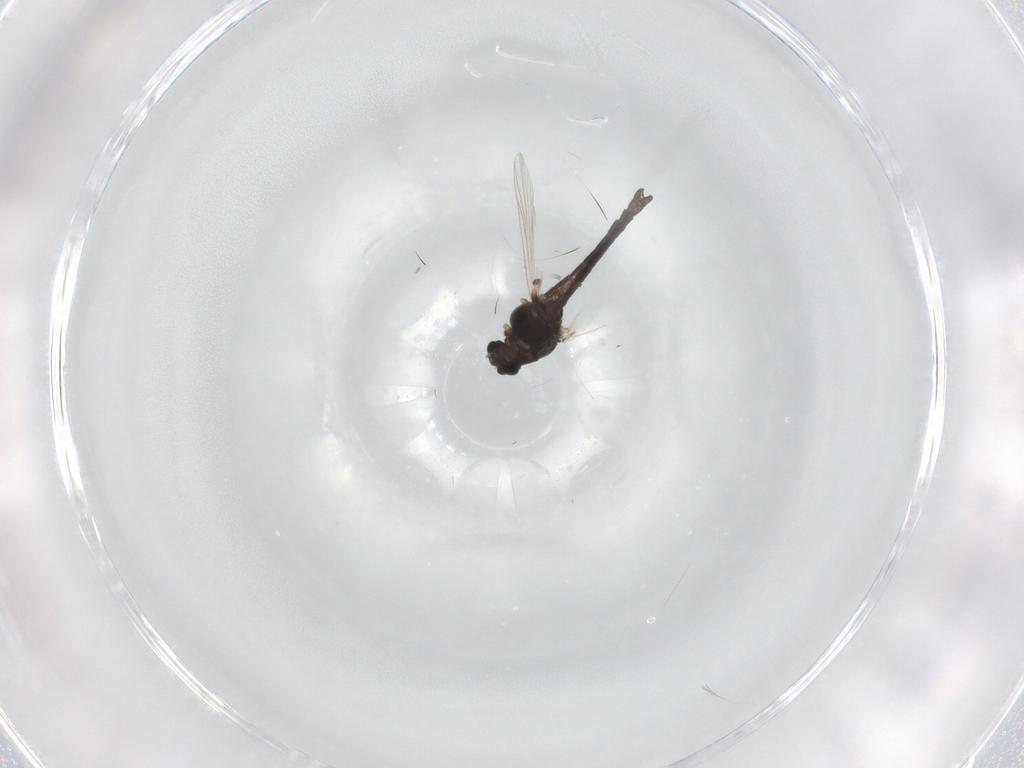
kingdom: Animalia
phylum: Arthropoda
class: Insecta
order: Diptera
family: Chironomidae
